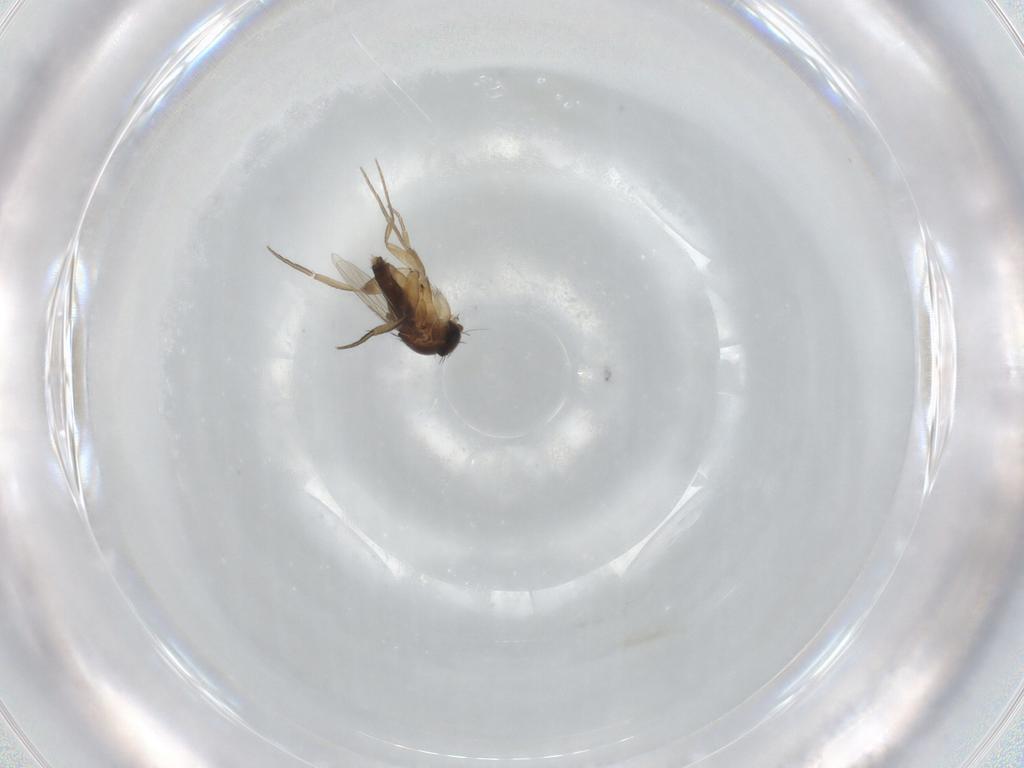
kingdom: Animalia
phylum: Arthropoda
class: Insecta
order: Diptera
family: Phoridae
